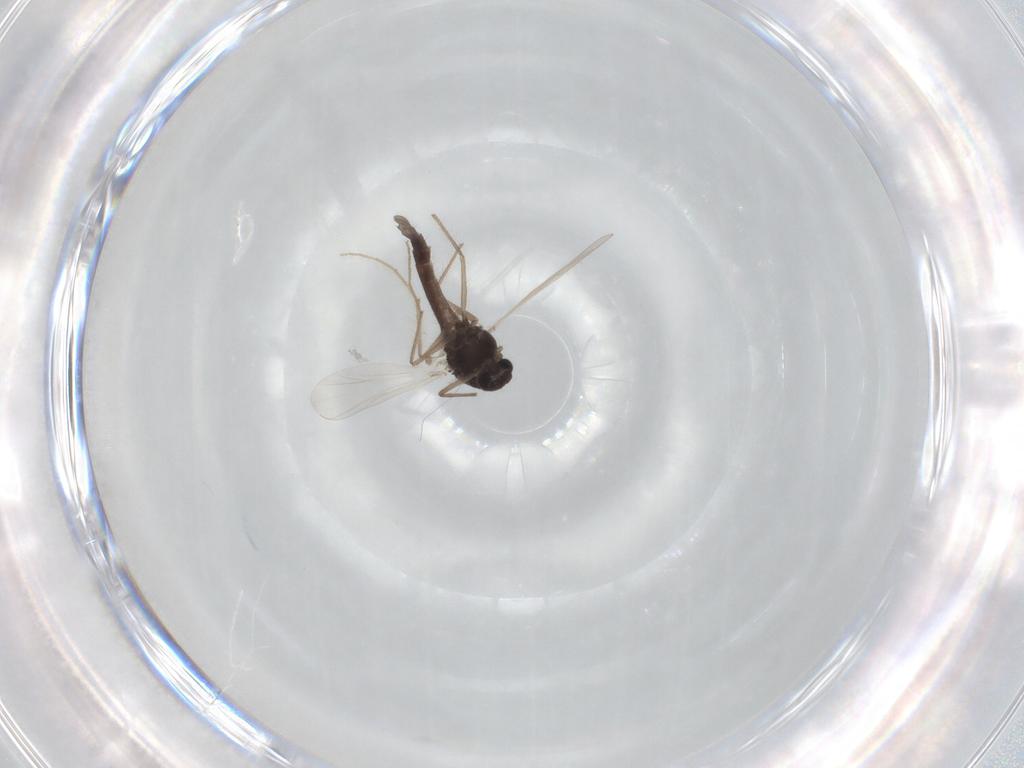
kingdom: Animalia
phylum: Arthropoda
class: Insecta
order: Diptera
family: Chironomidae
